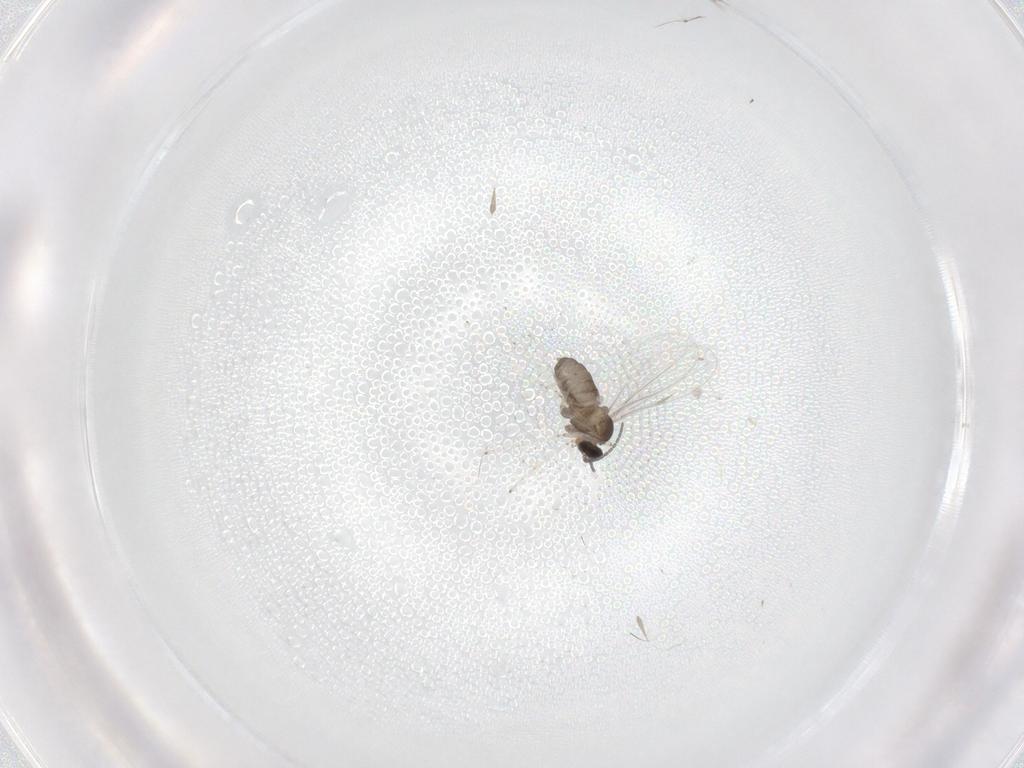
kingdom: Animalia
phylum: Arthropoda
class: Insecta
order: Diptera
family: Cecidomyiidae
